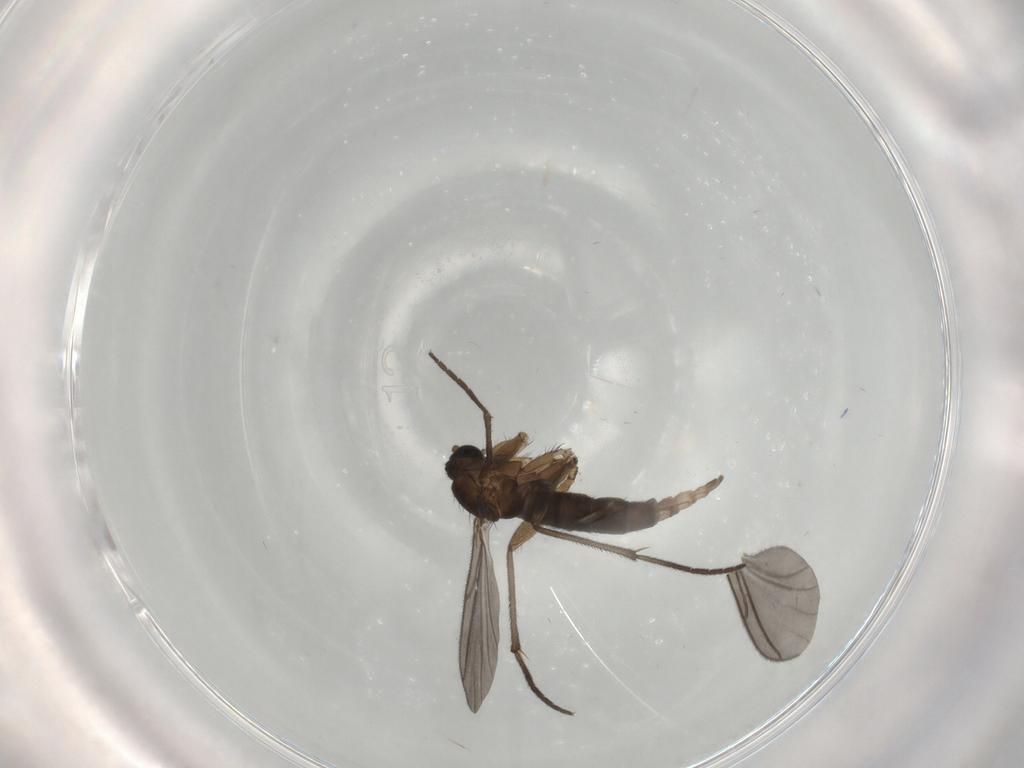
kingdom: Animalia
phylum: Arthropoda
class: Insecta
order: Diptera
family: Sciaridae
